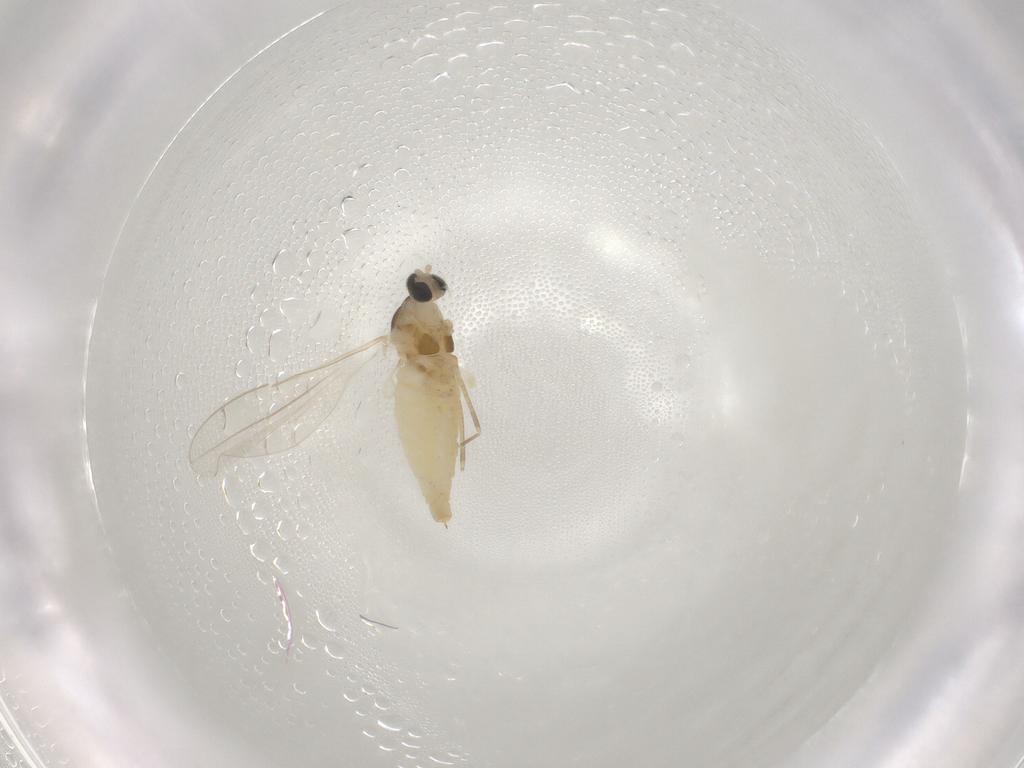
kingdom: Animalia
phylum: Arthropoda
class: Insecta
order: Diptera
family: Cecidomyiidae
